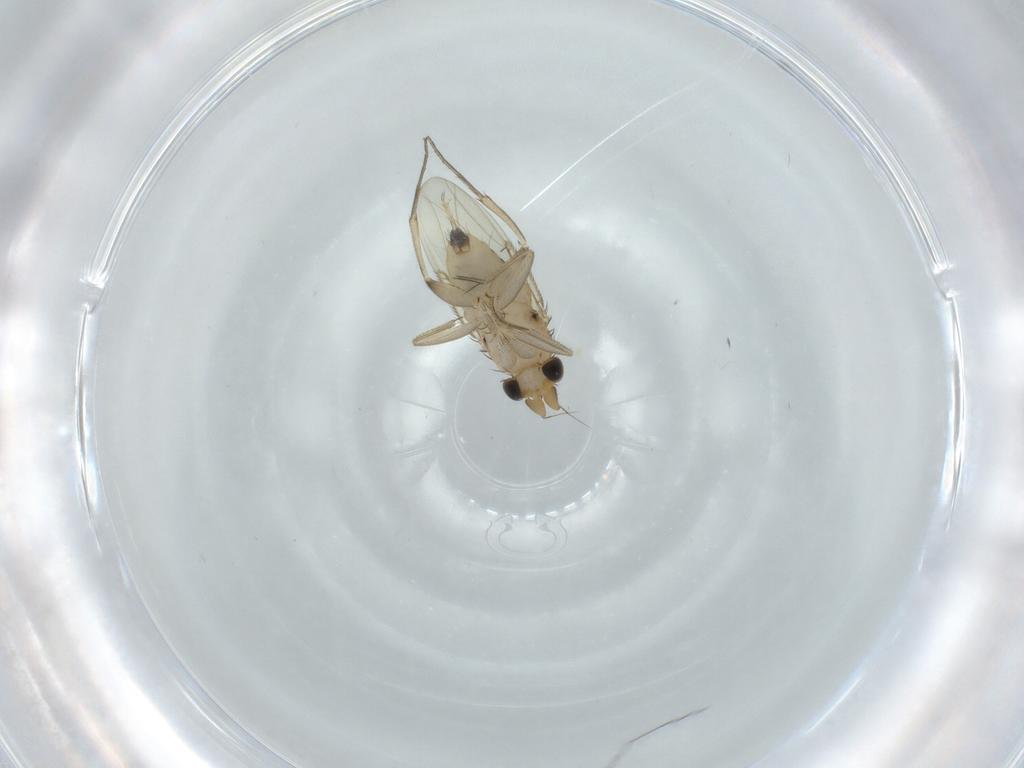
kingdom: Animalia
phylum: Arthropoda
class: Insecta
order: Diptera
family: Phoridae
